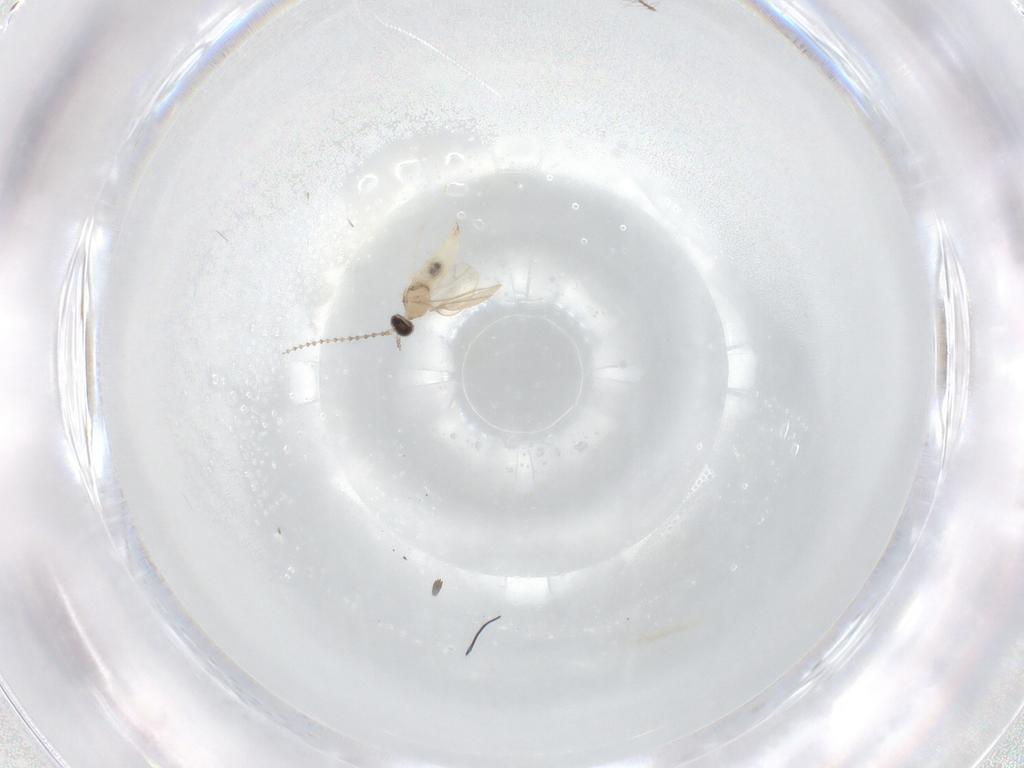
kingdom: Animalia
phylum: Arthropoda
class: Insecta
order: Diptera
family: Cecidomyiidae
